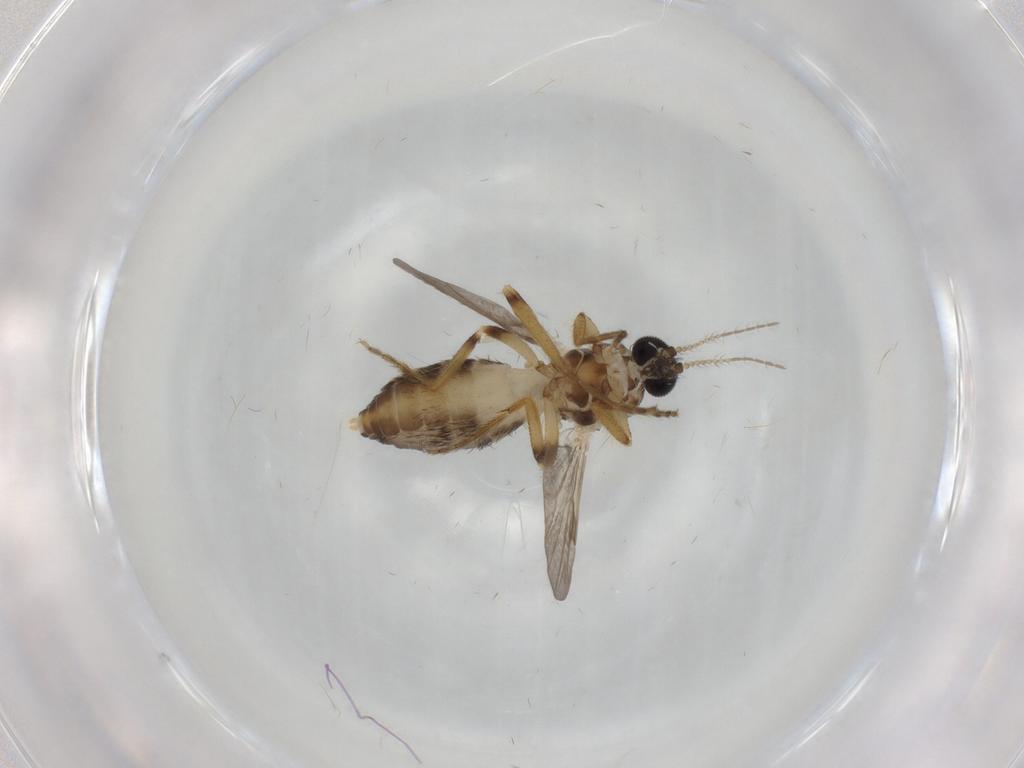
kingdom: Animalia
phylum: Arthropoda
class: Insecta
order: Diptera
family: Ceratopogonidae
